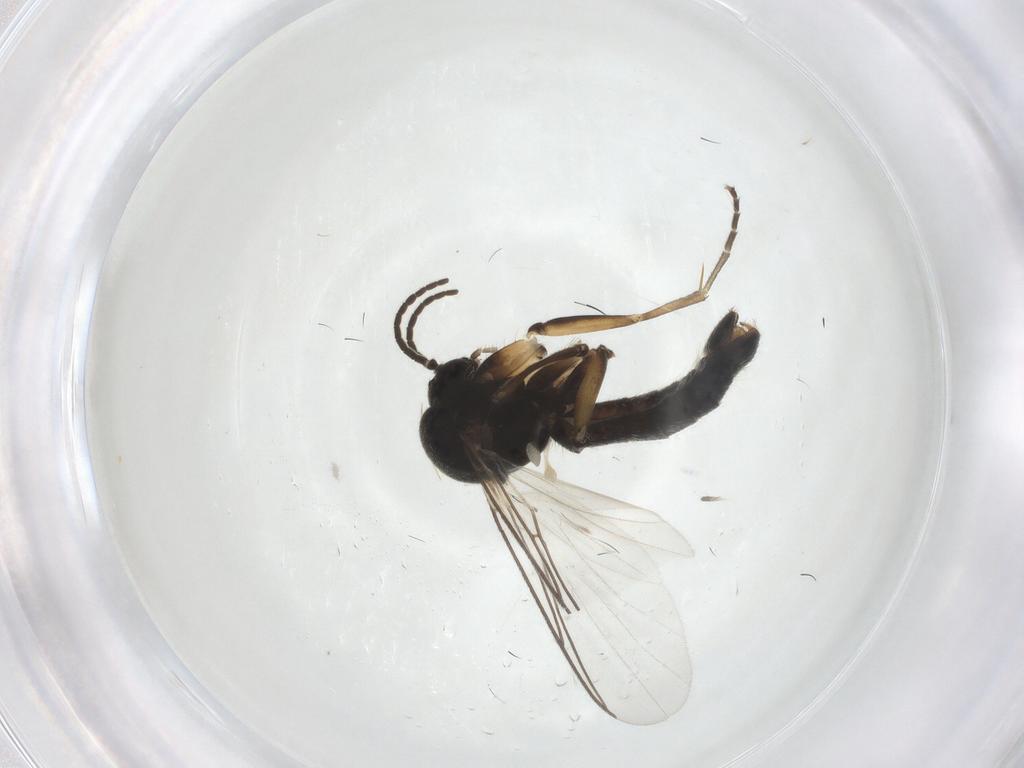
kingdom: Animalia
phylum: Arthropoda
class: Insecta
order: Diptera
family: Mycetophilidae
